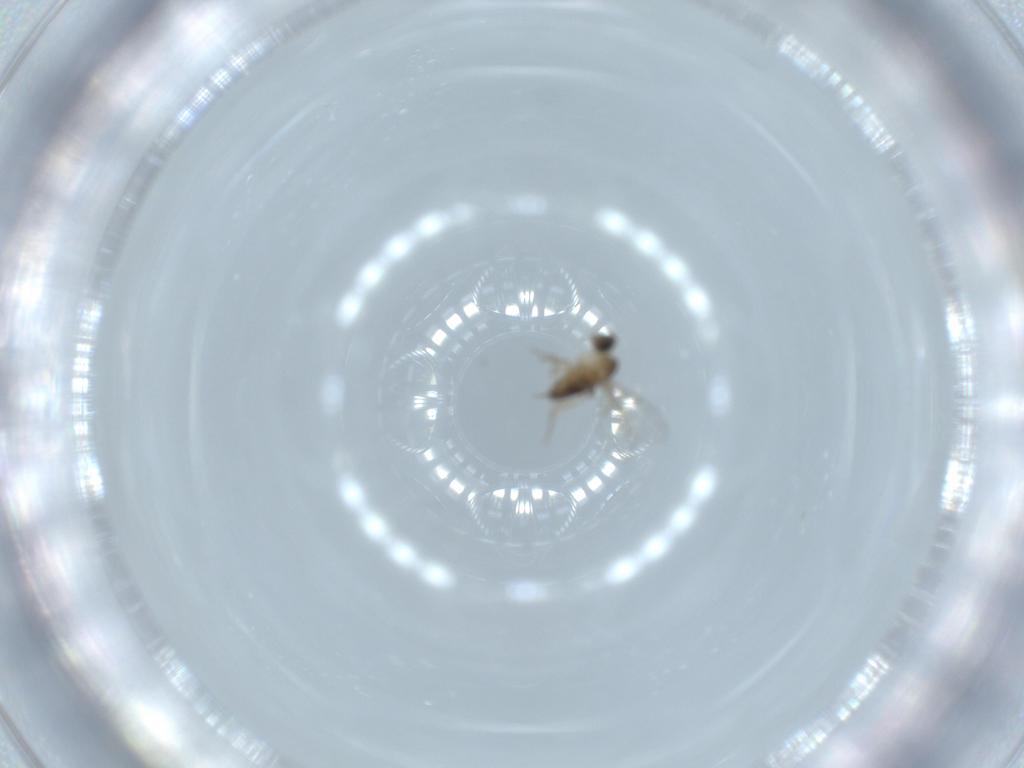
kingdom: Animalia
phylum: Arthropoda
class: Insecta
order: Diptera
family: Phoridae
